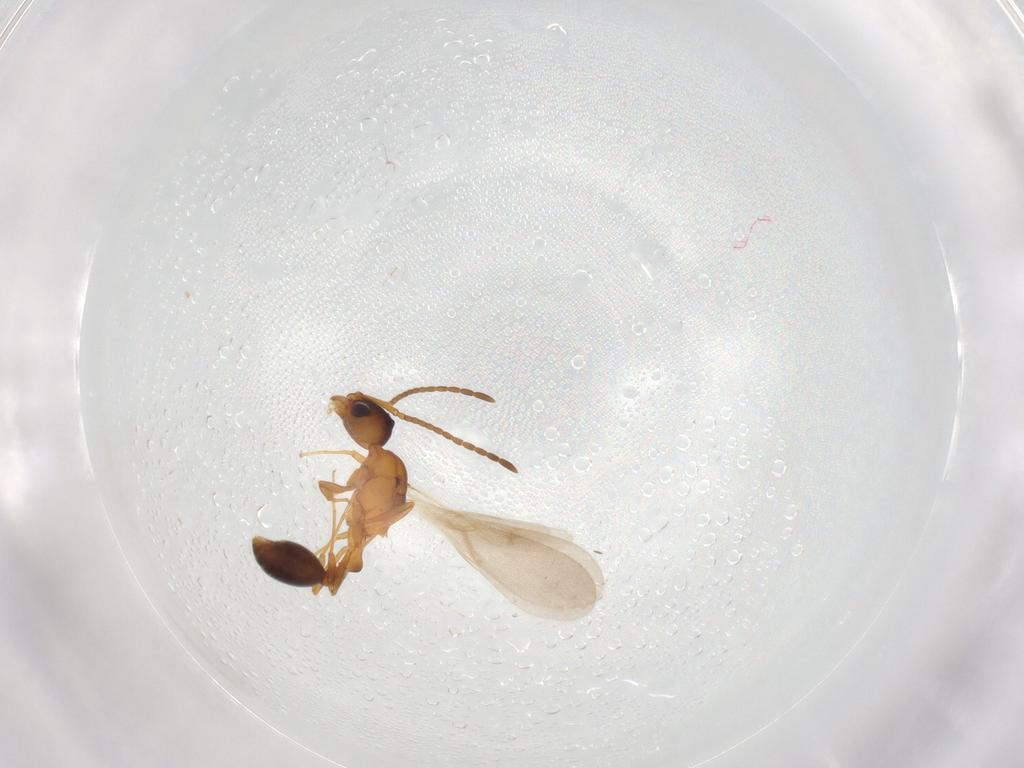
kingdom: Animalia
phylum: Arthropoda
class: Insecta
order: Hymenoptera
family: Formicidae
